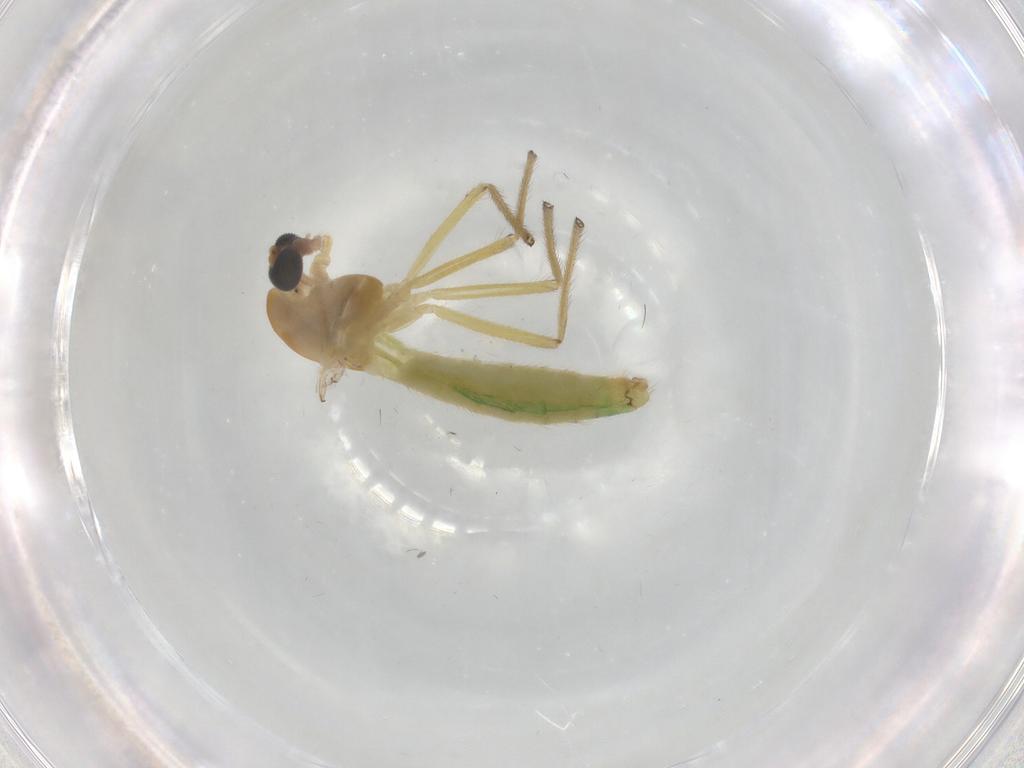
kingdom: Animalia
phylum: Arthropoda
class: Insecta
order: Diptera
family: Chironomidae
